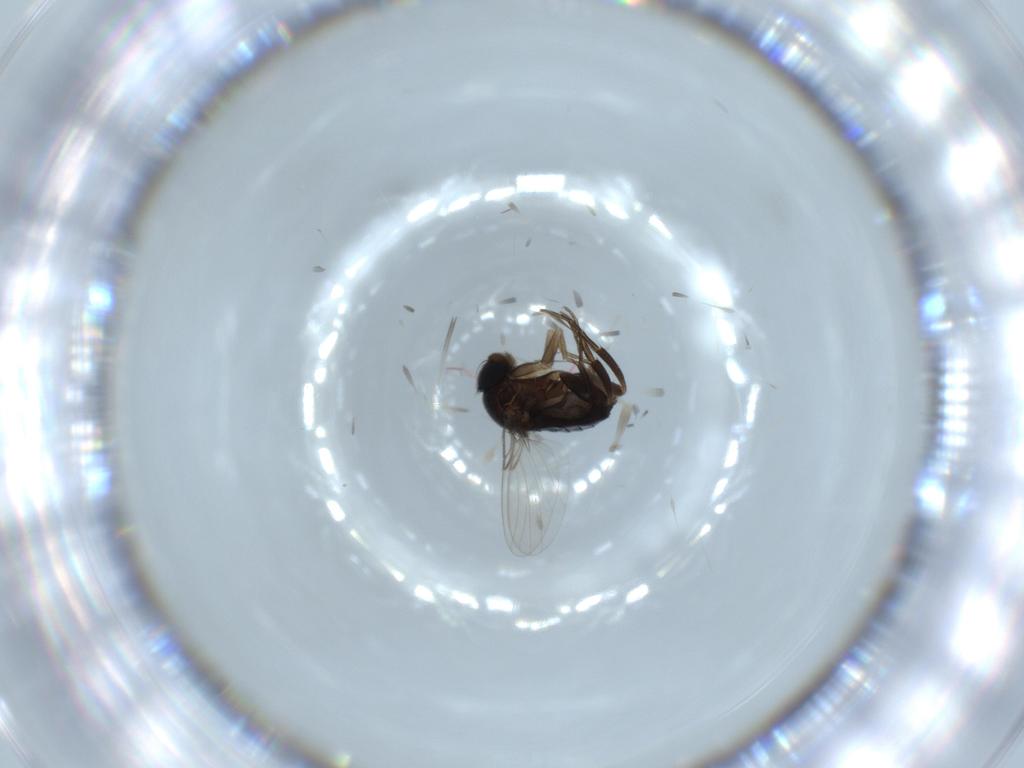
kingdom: Animalia
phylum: Arthropoda
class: Insecta
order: Diptera
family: Phoridae
